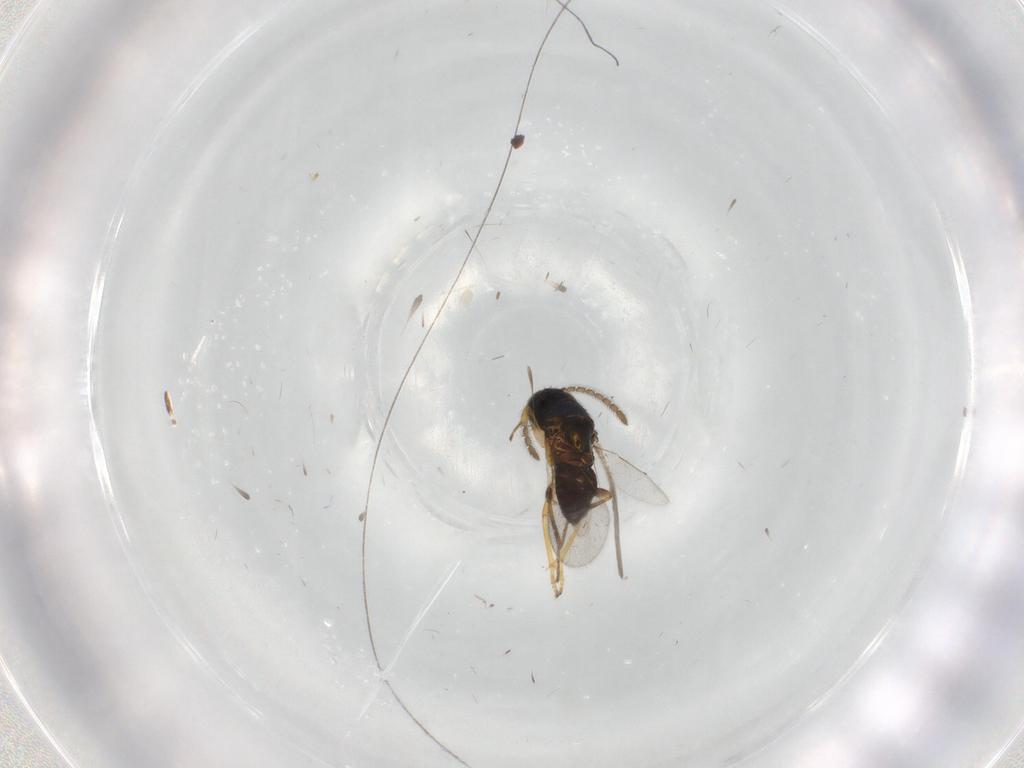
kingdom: Animalia
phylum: Arthropoda
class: Insecta
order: Hymenoptera
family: Encyrtidae
